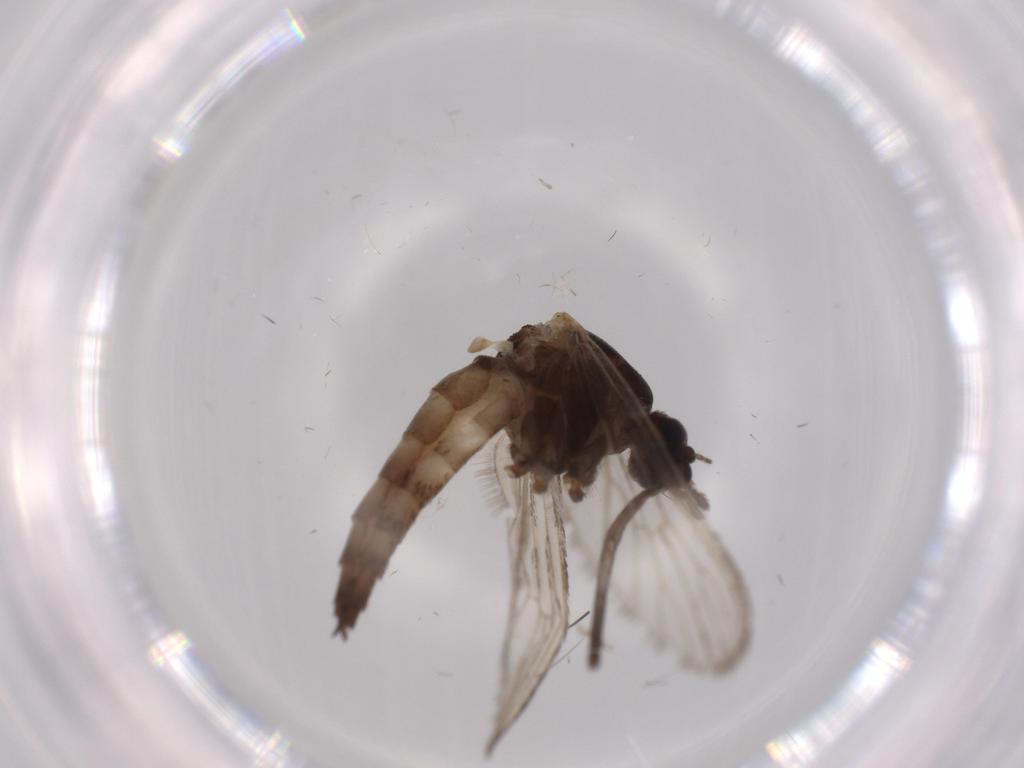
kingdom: Animalia
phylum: Arthropoda
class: Insecta
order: Diptera
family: Sciaridae
